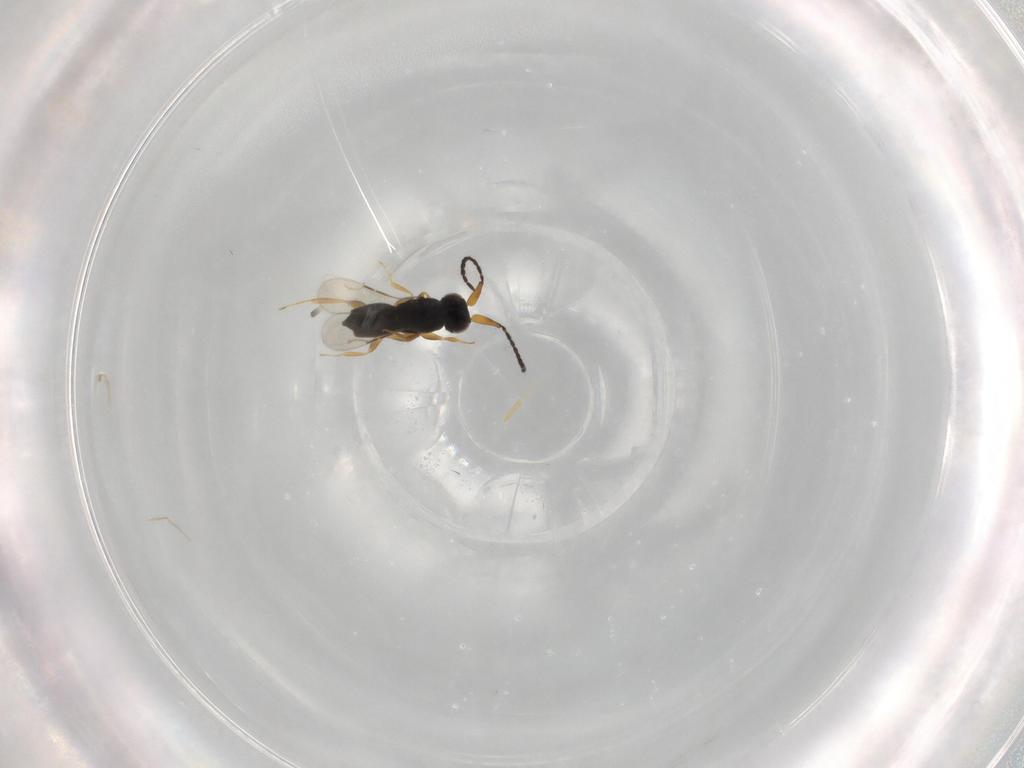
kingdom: Animalia
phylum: Arthropoda
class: Insecta
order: Hymenoptera
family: Ceraphronidae
